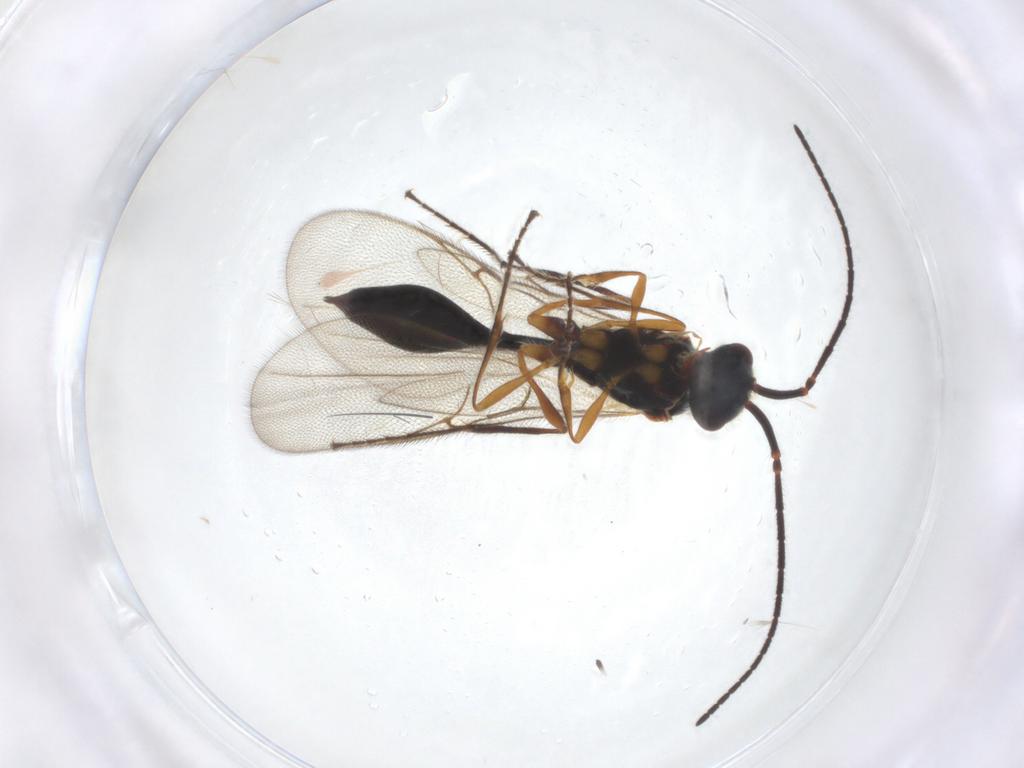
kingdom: Animalia
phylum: Arthropoda
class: Insecta
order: Hymenoptera
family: Diapriidae
